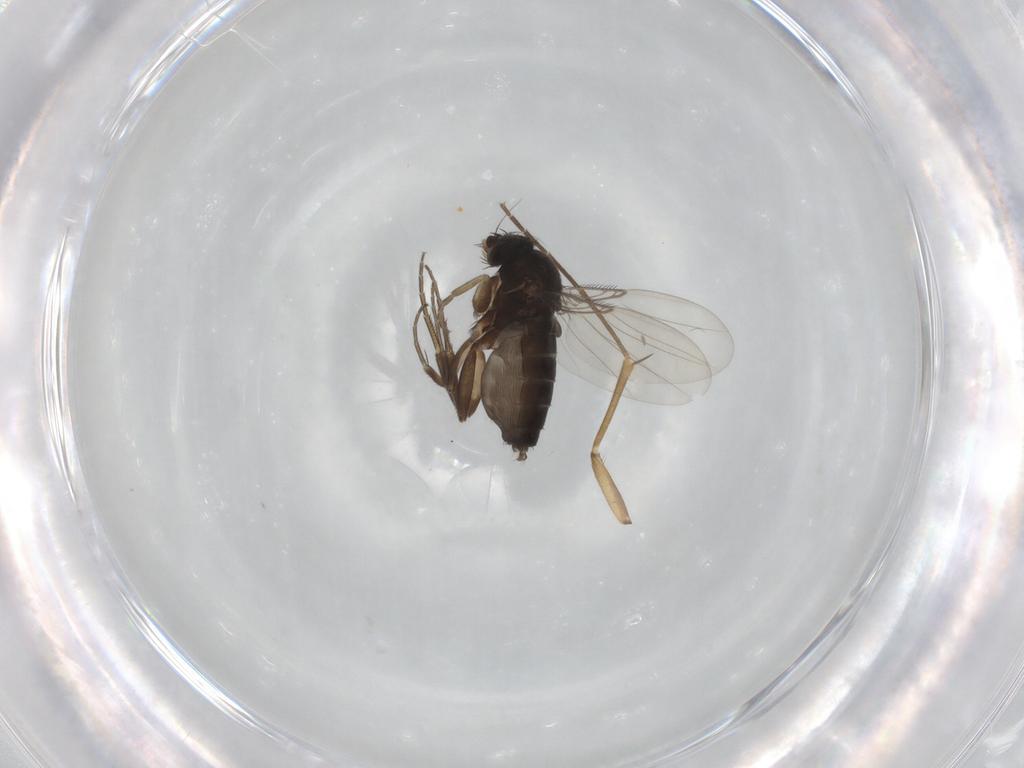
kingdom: Animalia
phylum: Arthropoda
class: Insecta
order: Diptera
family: Phoridae
